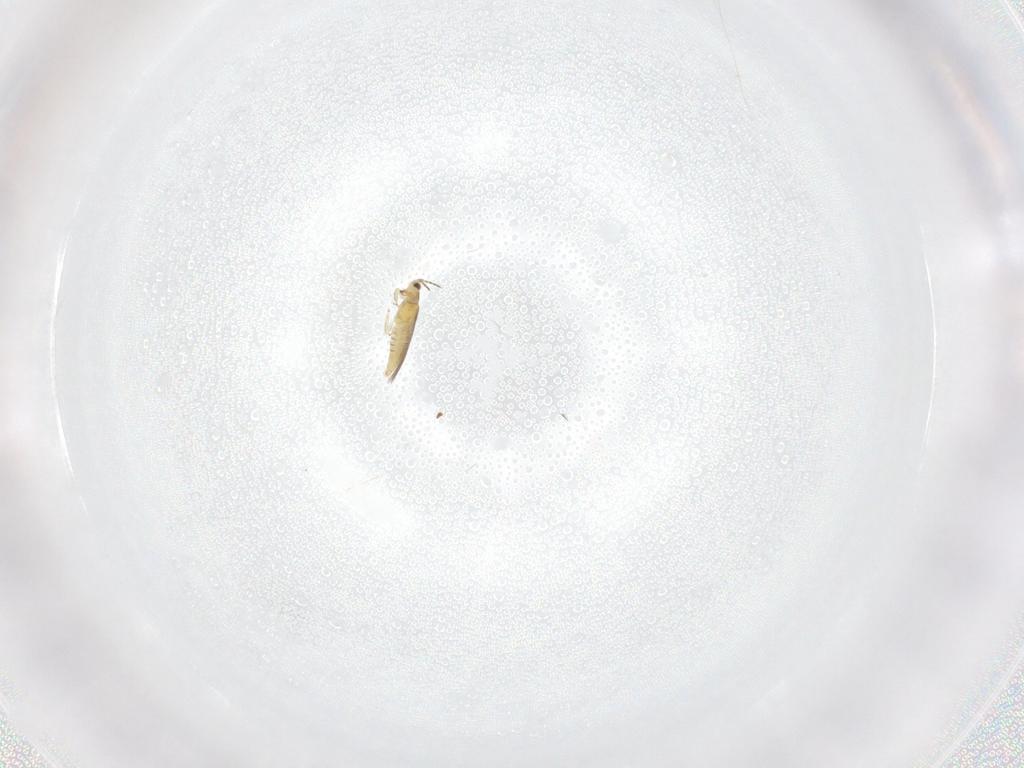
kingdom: Animalia
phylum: Arthropoda
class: Insecta
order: Thysanoptera
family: Thripidae
